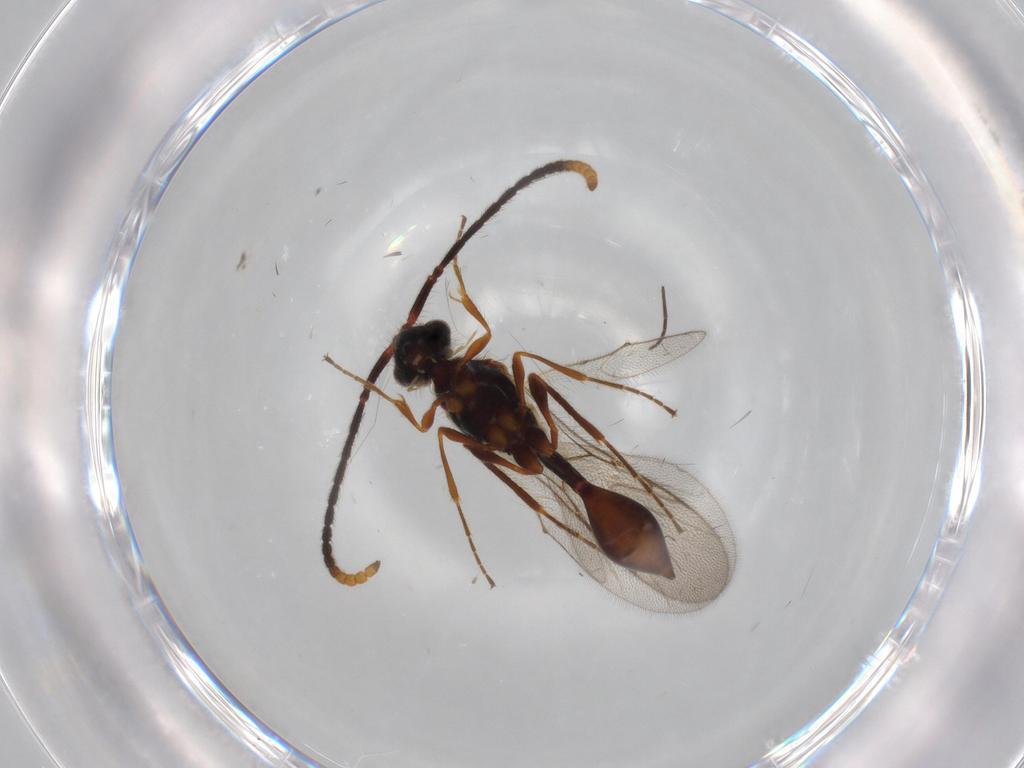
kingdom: Animalia
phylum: Arthropoda
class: Insecta
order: Hymenoptera
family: Diapriidae
